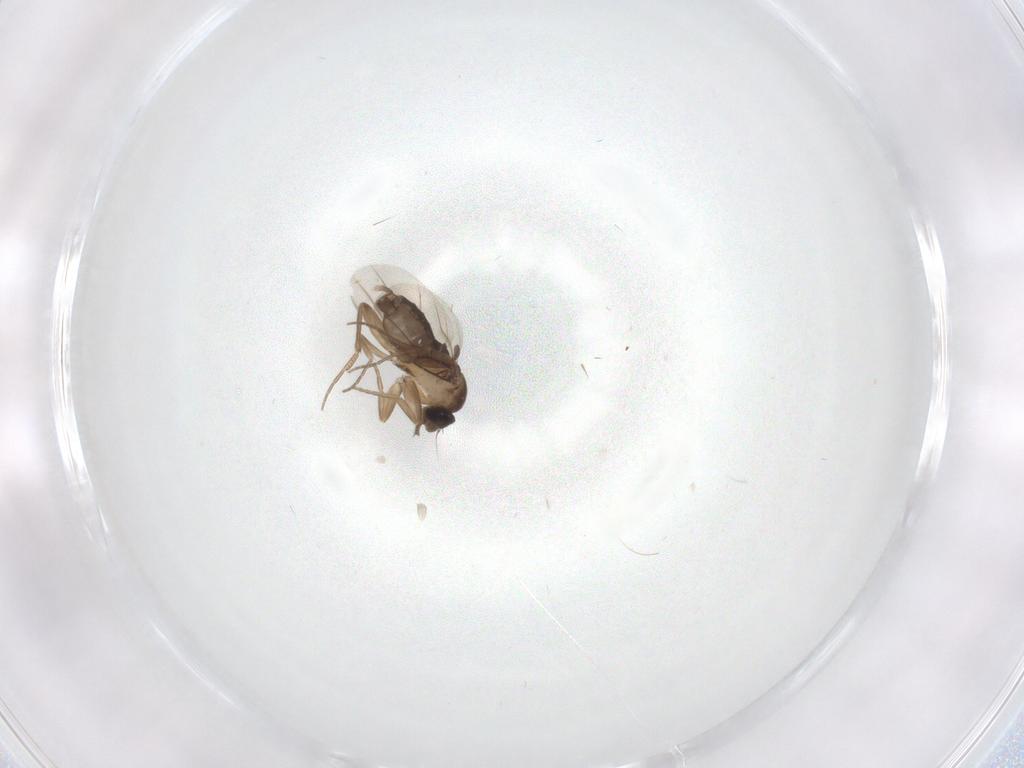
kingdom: Animalia
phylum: Arthropoda
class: Insecta
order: Diptera
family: Phoridae
